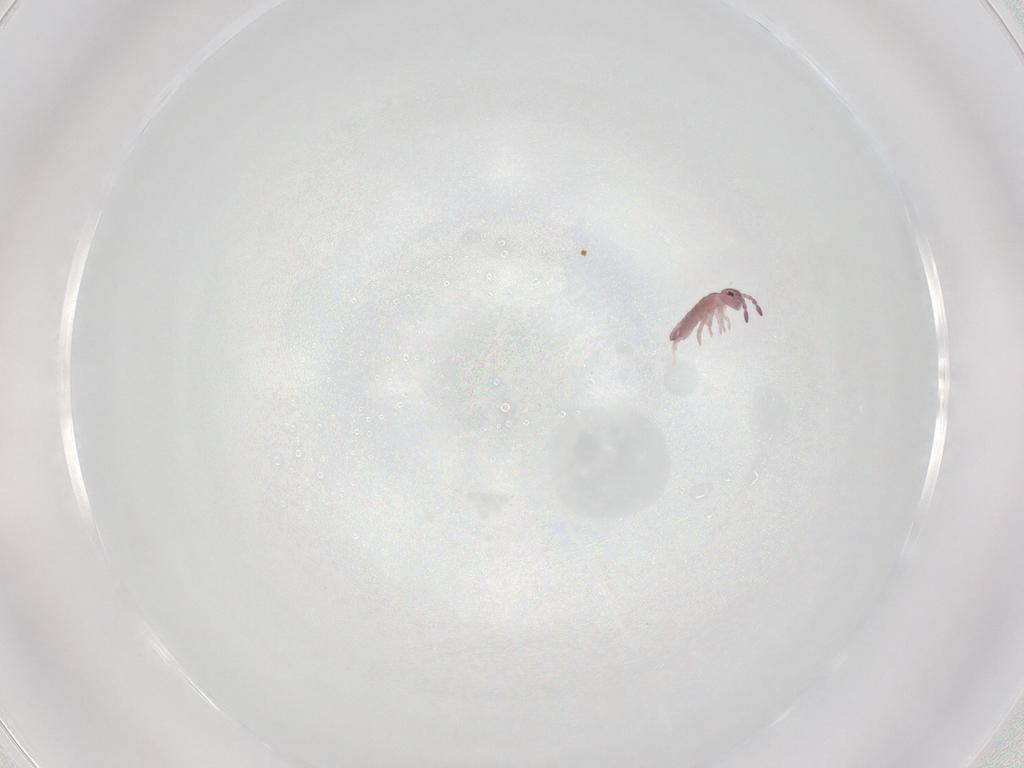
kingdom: Animalia
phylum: Arthropoda
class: Collembola
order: Entomobryomorpha
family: Isotomidae
